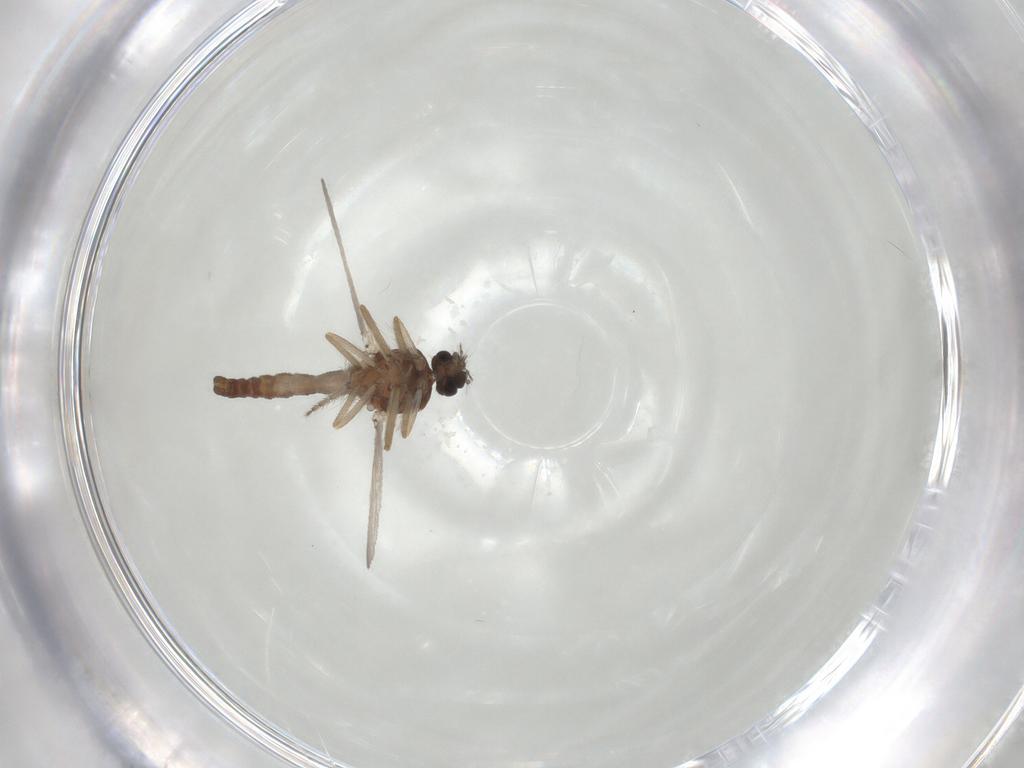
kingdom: Animalia
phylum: Arthropoda
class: Insecta
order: Diptera
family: Ceratopogonidae
